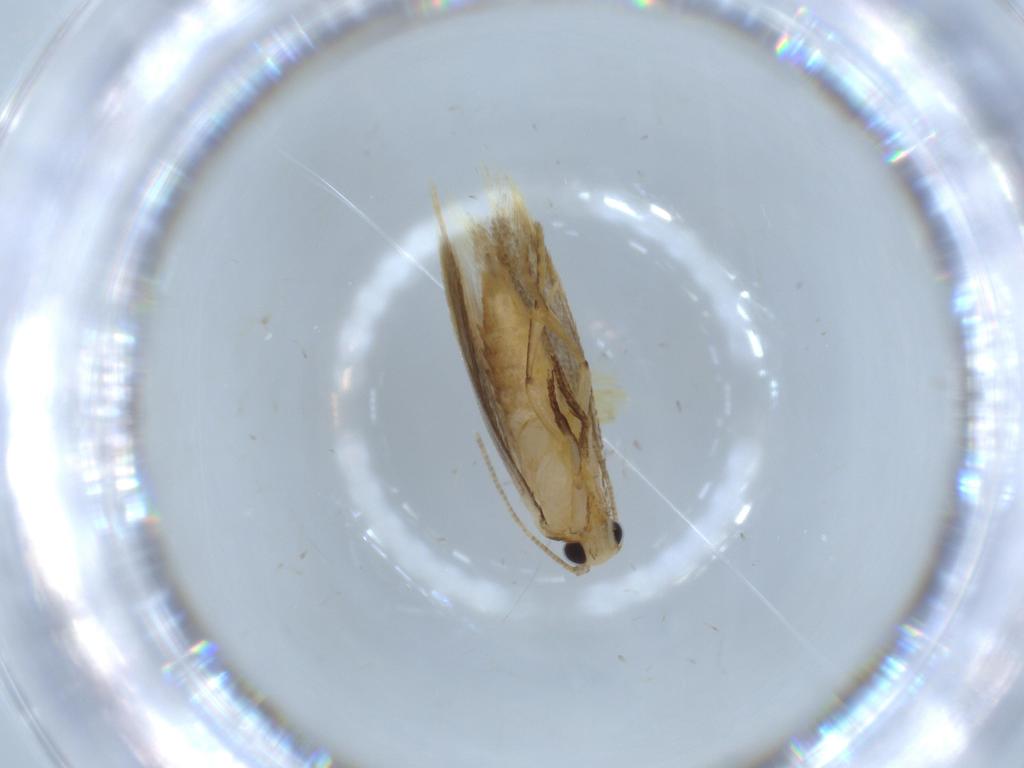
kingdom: Animalia
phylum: Arthropoda
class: Insecta
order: Lepidoptera
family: Tineidae
